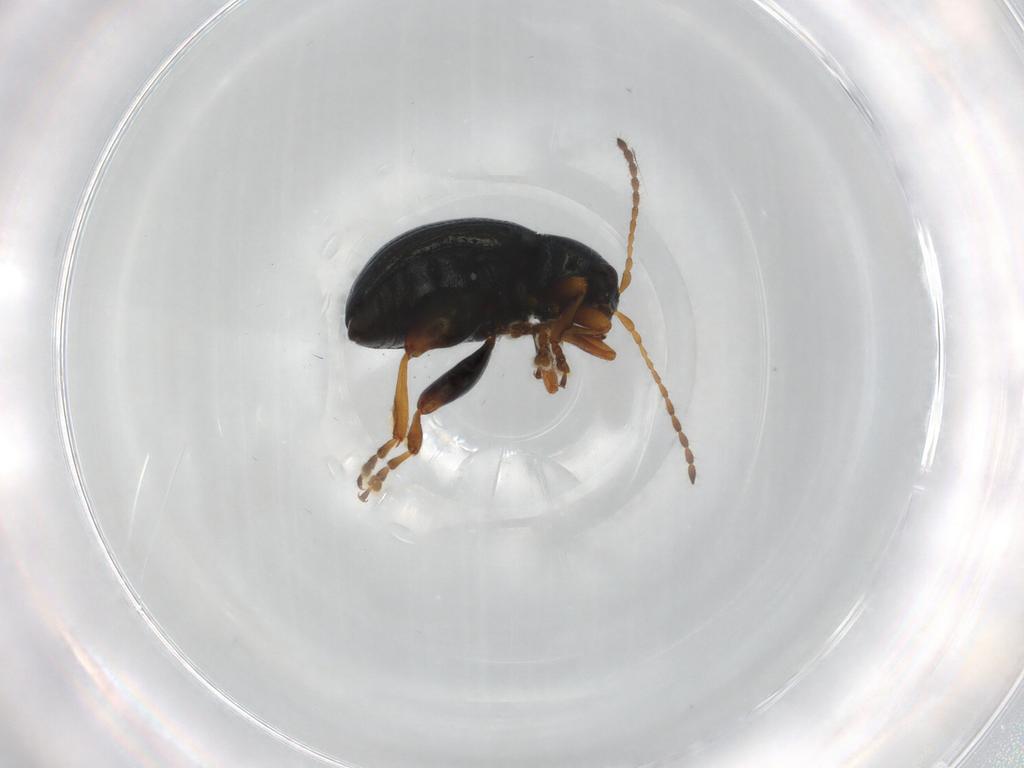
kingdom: Animalia
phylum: Arthropoda
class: Insecta
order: Coleoptera
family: Chrysomelidae
